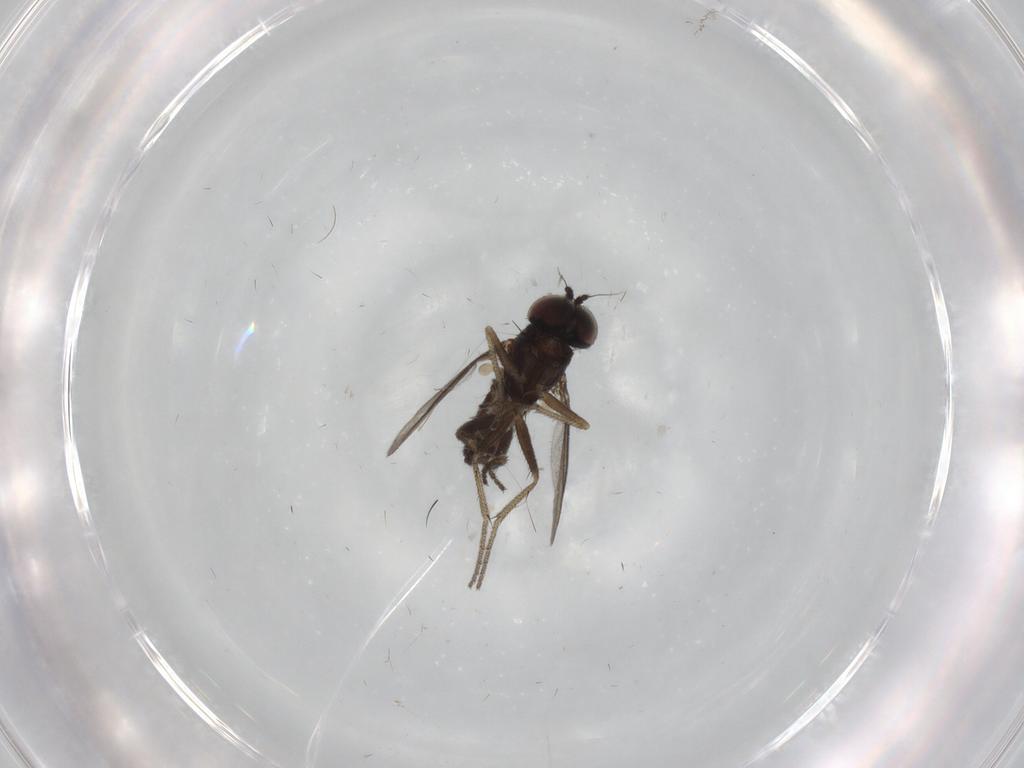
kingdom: Animalia
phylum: Arthropoda
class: Insecta
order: Diptera
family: Dolichopodidae
